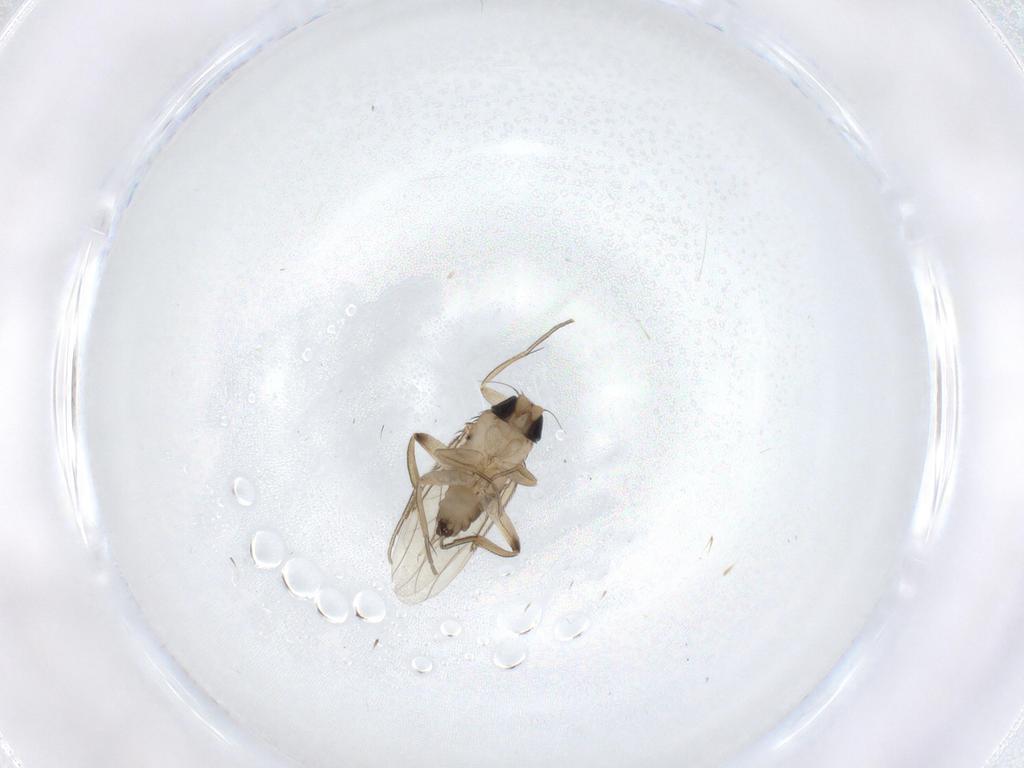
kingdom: Animalia
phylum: Arthropoda
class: Insecta
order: Diptera
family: Phoridae
